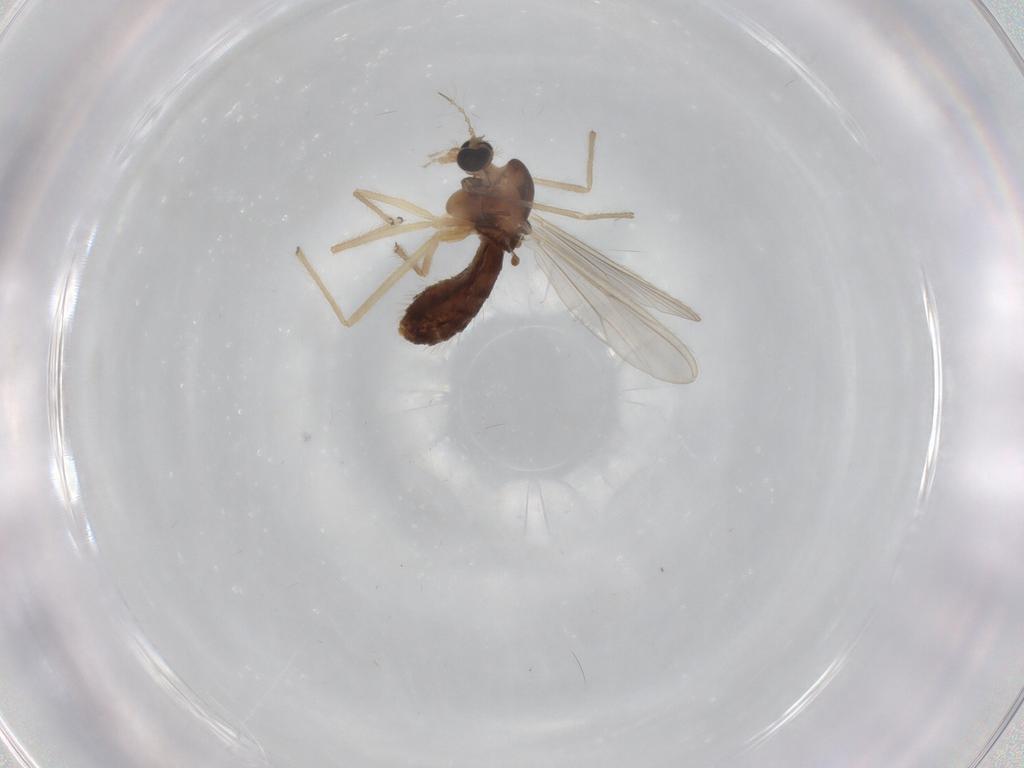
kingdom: Animalia
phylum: Arthropoda
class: Insecta
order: Diptera
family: Chironomidae
